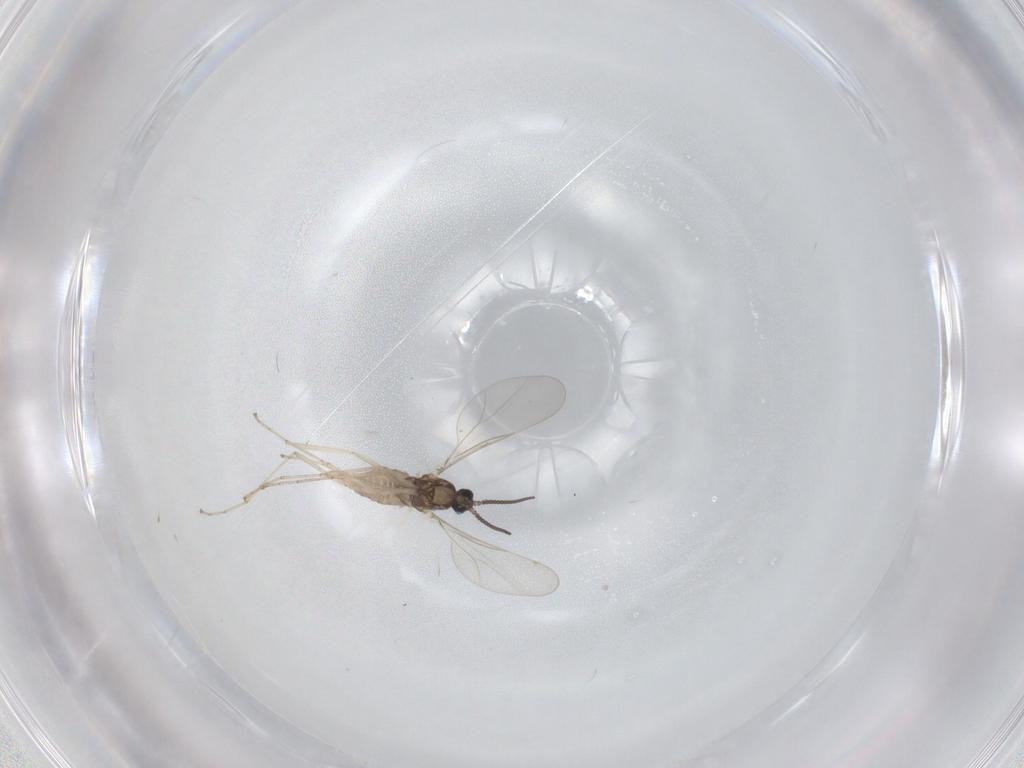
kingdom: Animalia
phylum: Arthropoda
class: Insecta
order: Diptera
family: Cecidomyiidae
